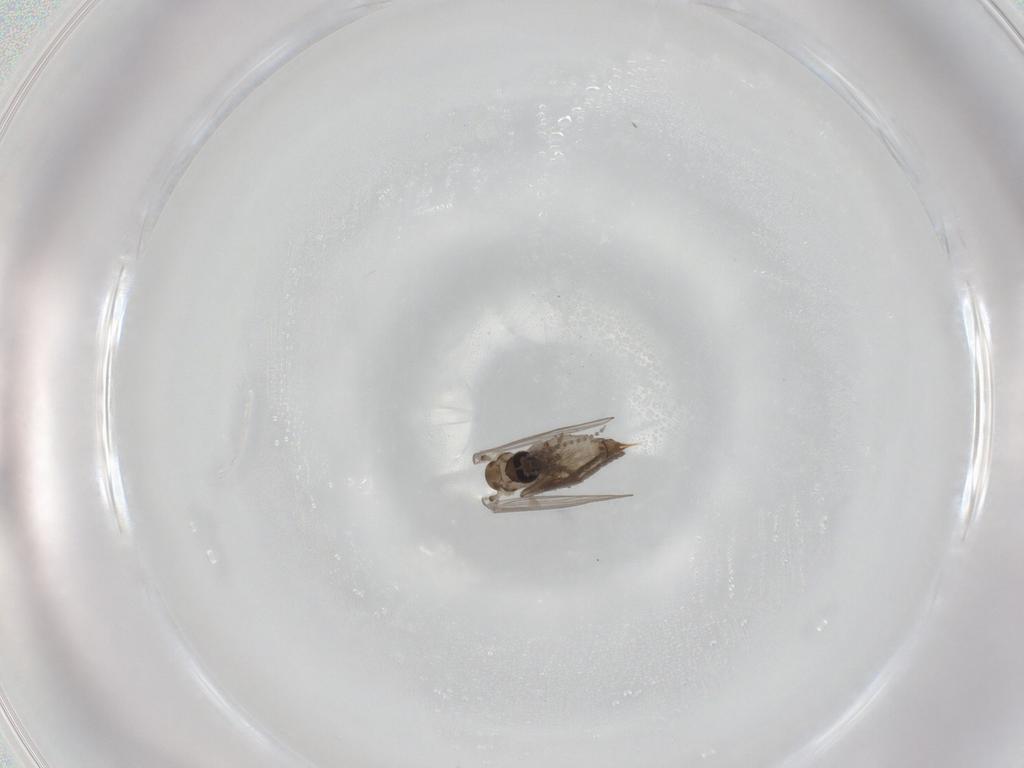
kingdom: Animalia
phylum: Arthropoda
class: Insecta
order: Diptera
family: Psychodidae
